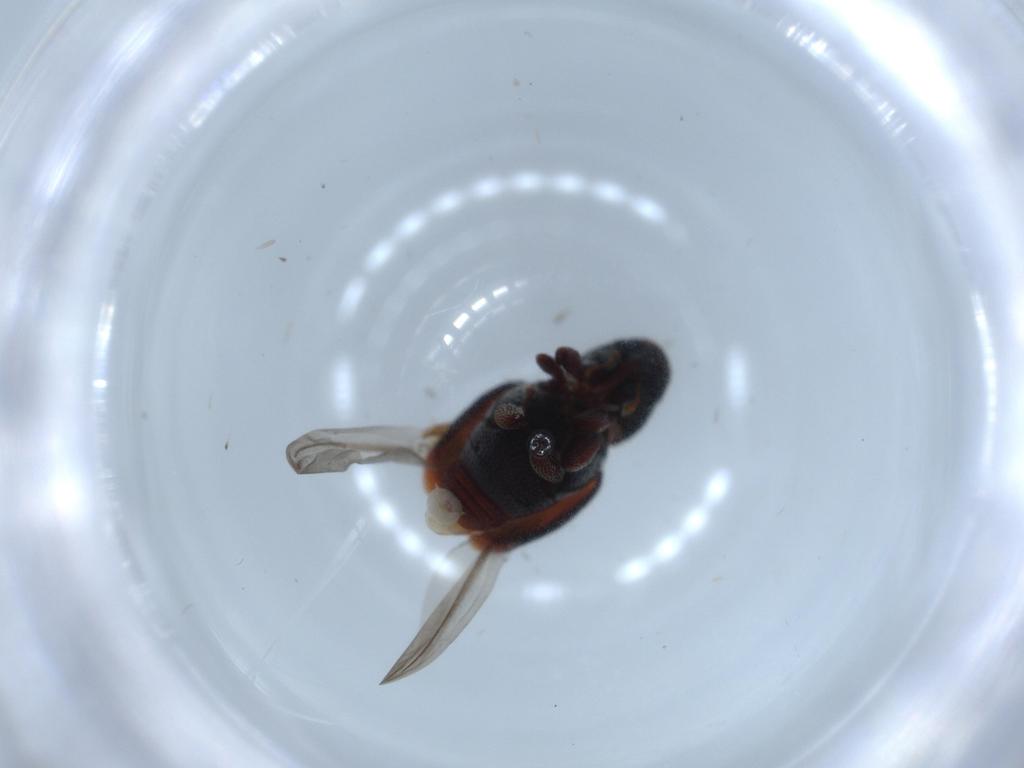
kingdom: Animalia
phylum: Arthropoda
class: Insecta
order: Coleoptera
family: Curculionidae
